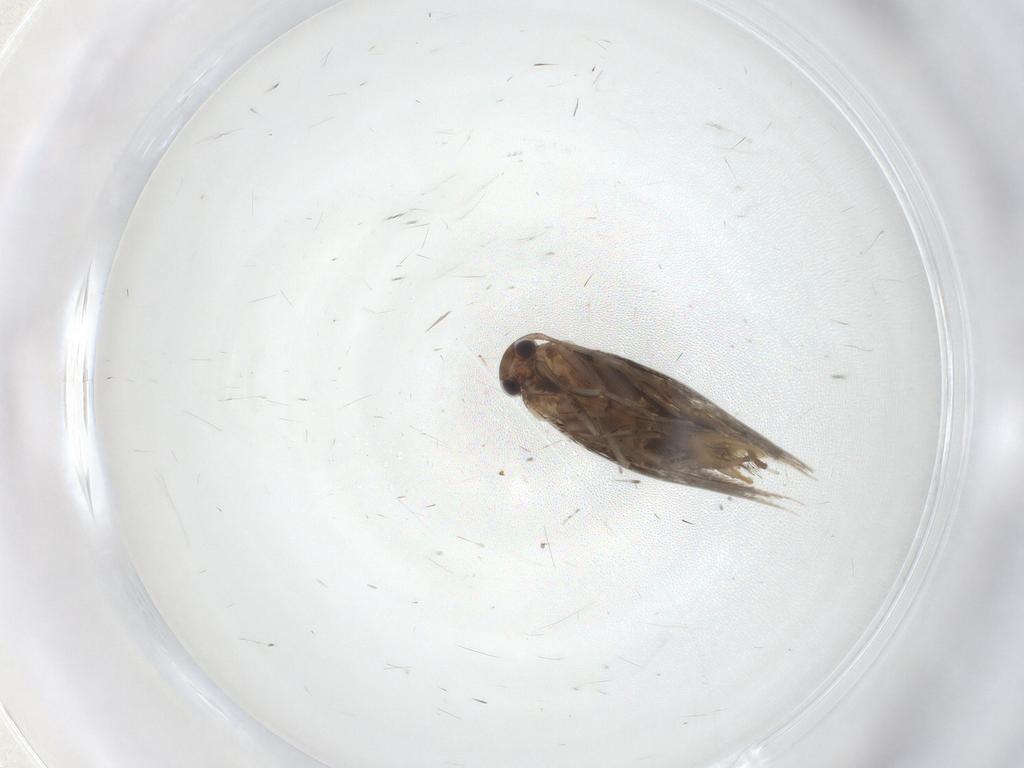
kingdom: Animalia
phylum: Arthropoda
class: Insecta
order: Lepidoptera
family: Elachistidae
